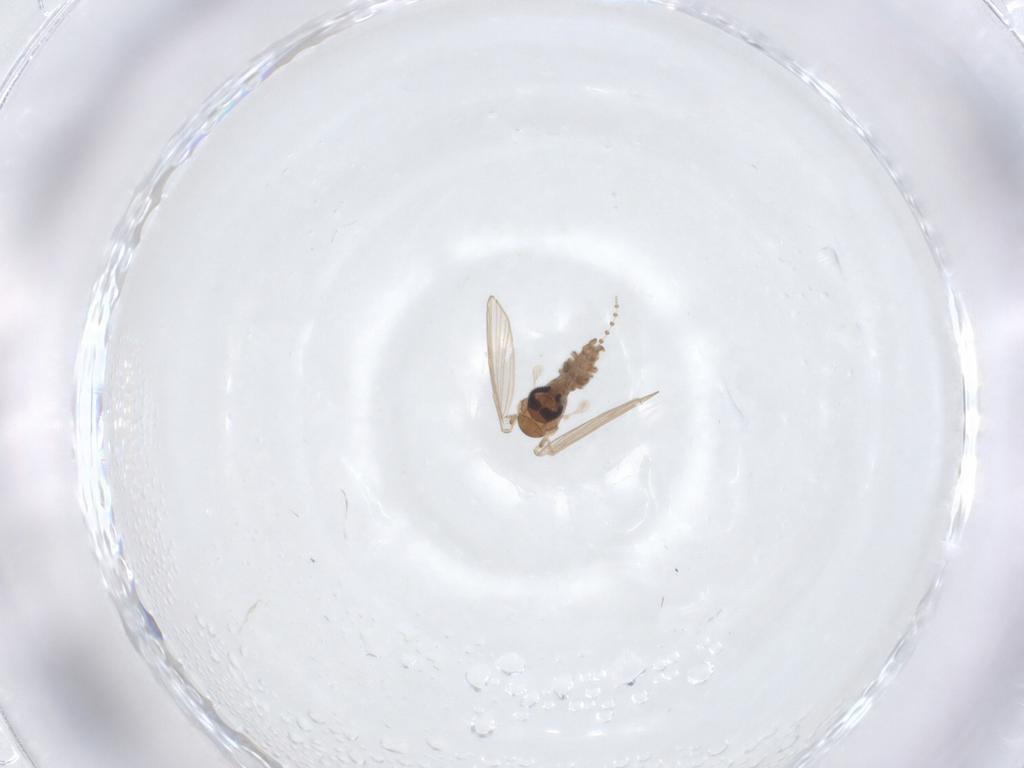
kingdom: Animalia
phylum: Arthropoda
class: Insecta
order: Diptera
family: Psychodidae
